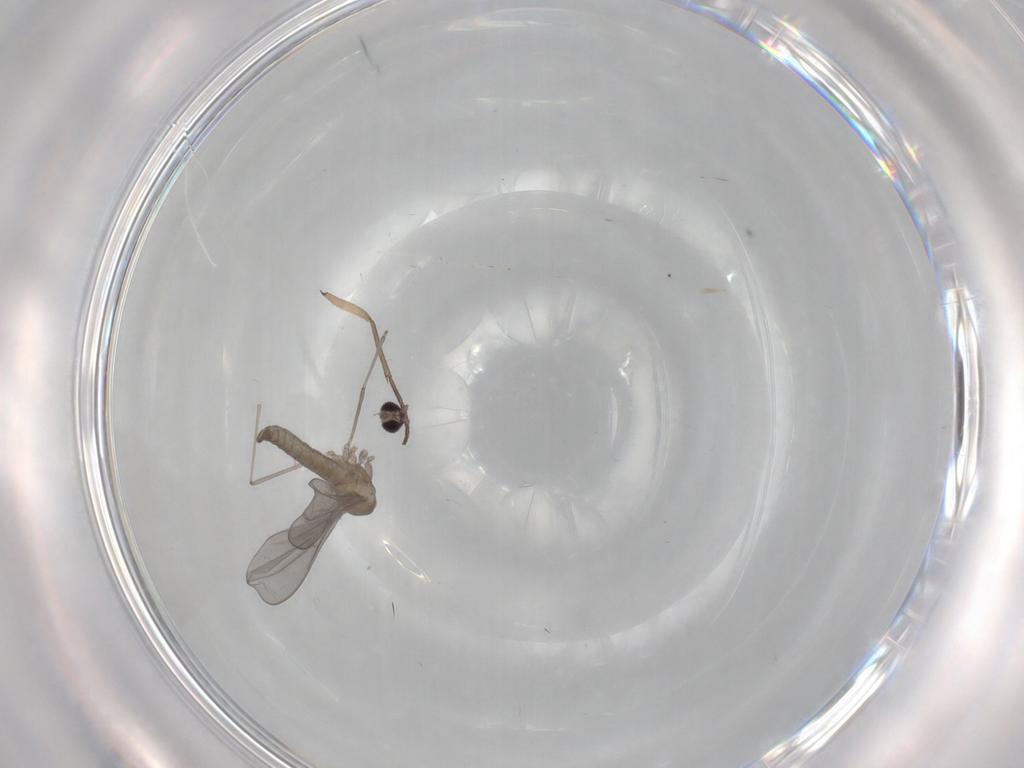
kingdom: Animalia
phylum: Arthropoda
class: Insecta
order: Diptera
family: Cecidomyiidae
